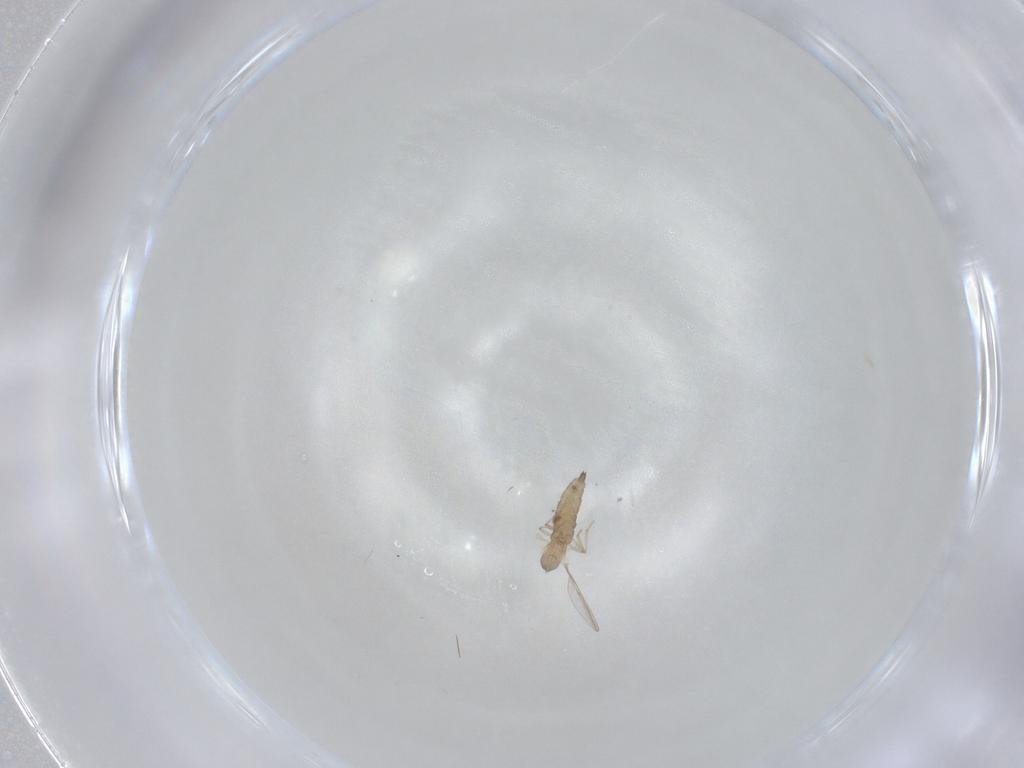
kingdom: Animalia
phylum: Arthropoda
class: Insecta
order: Diptera
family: Cecidomyiidae
